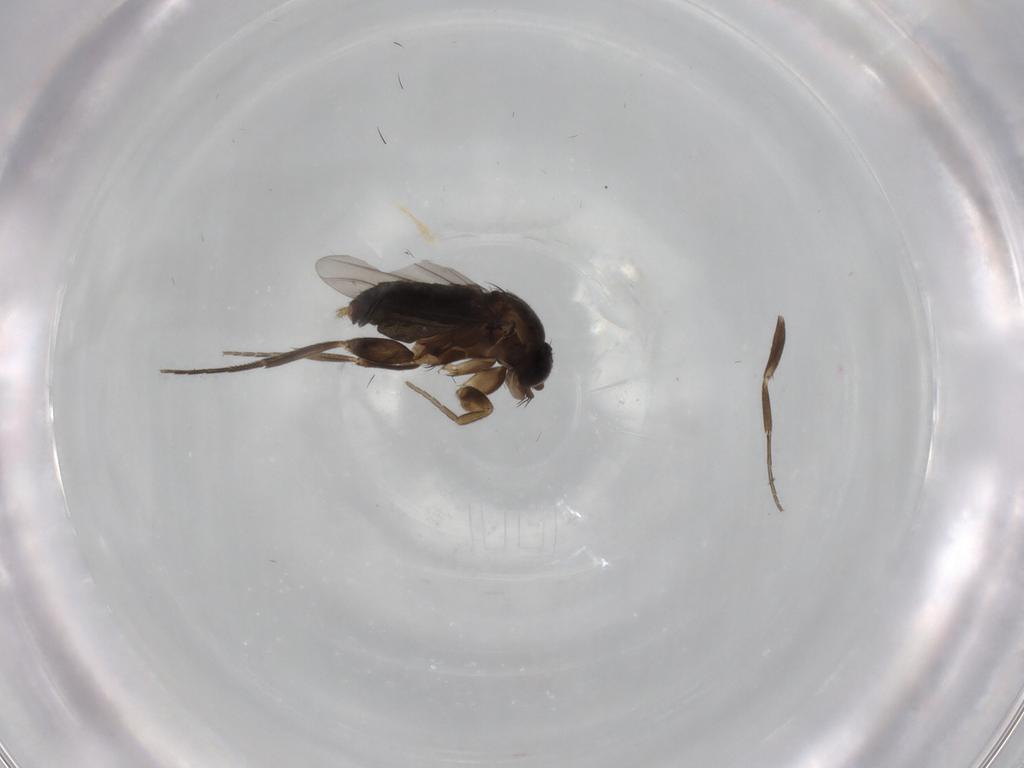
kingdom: Animalia
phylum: Arthropoda
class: Insecta
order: Diptera
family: Phoridae
